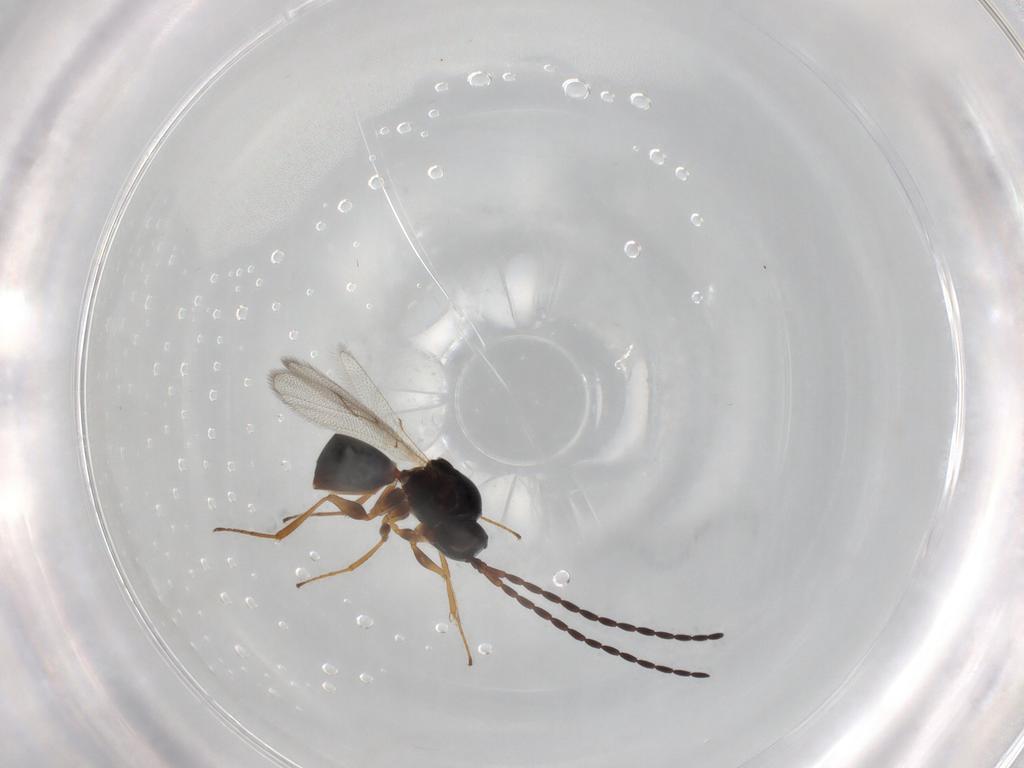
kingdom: Animalia
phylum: Arthropoda
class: Insecta
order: Hymenoptera
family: Figitidae
